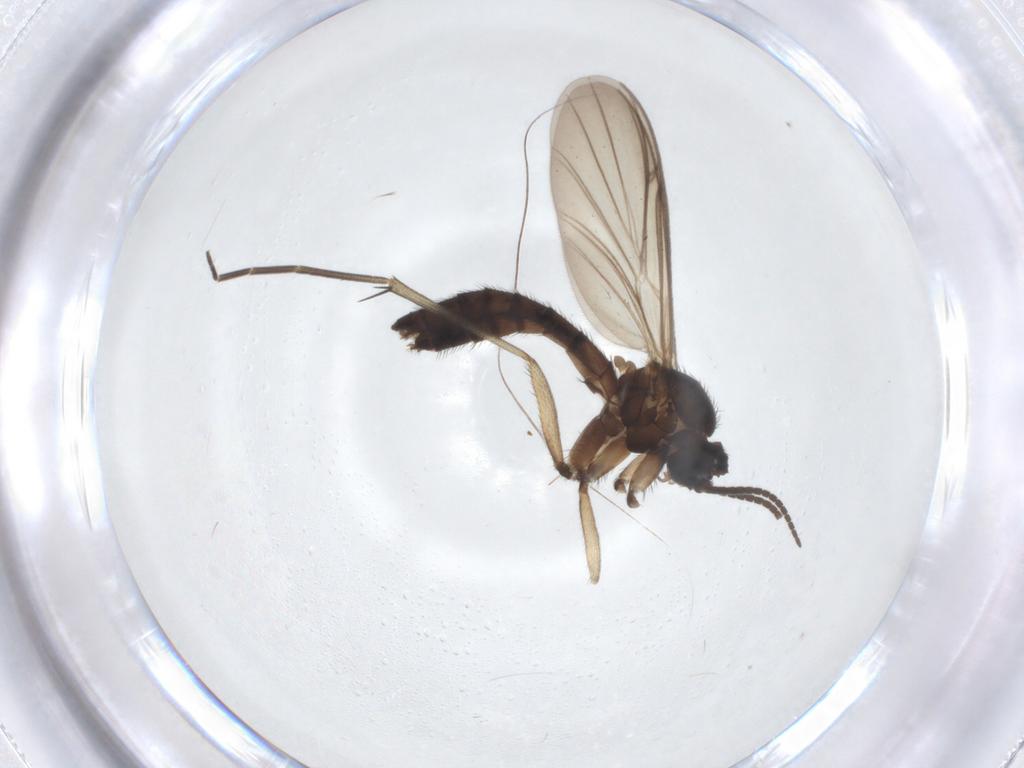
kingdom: Animalia
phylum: Arthropoda
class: Insecta
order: Diptera
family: Keroplatidae
